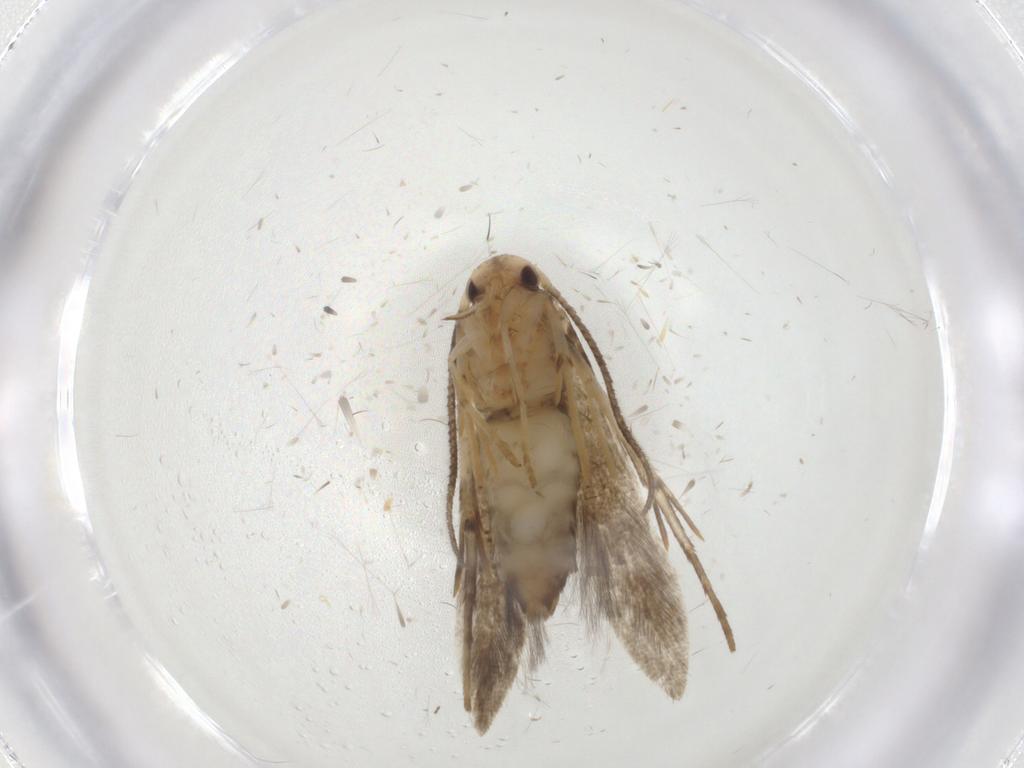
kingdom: Animalia
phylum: Arthropoda
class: Insecta
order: Lepidoptera
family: Stathmopodidae
